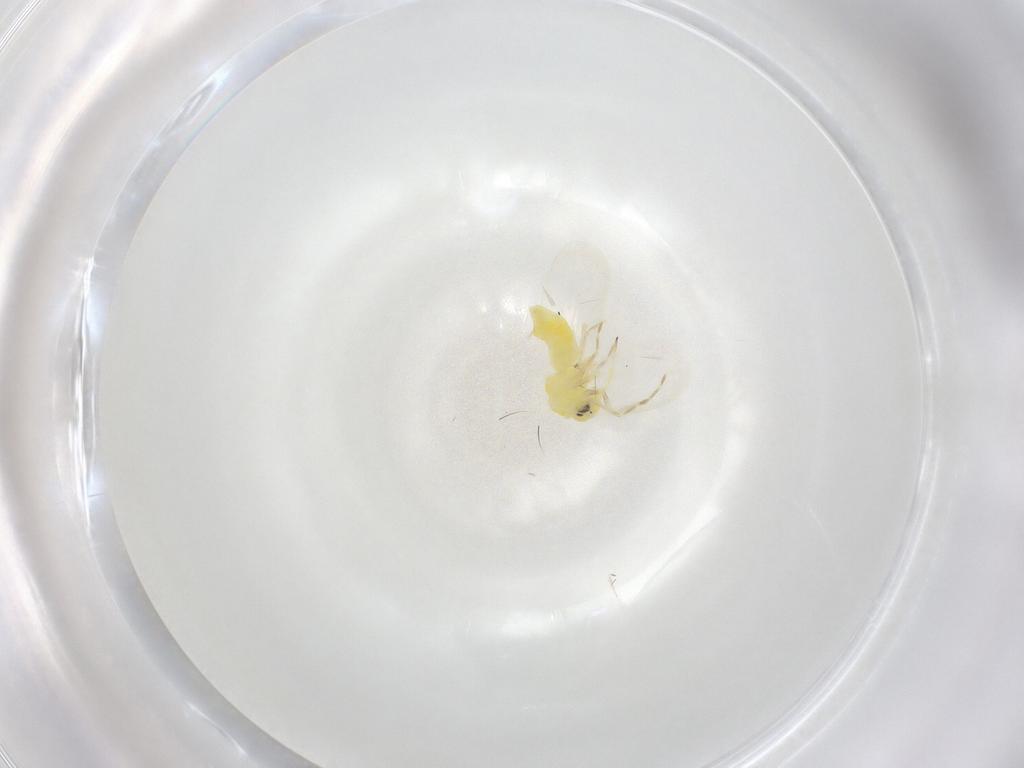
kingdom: Animalia
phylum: Arthropoda
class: Insecta
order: Hemiptera
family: Aleyrodidae
